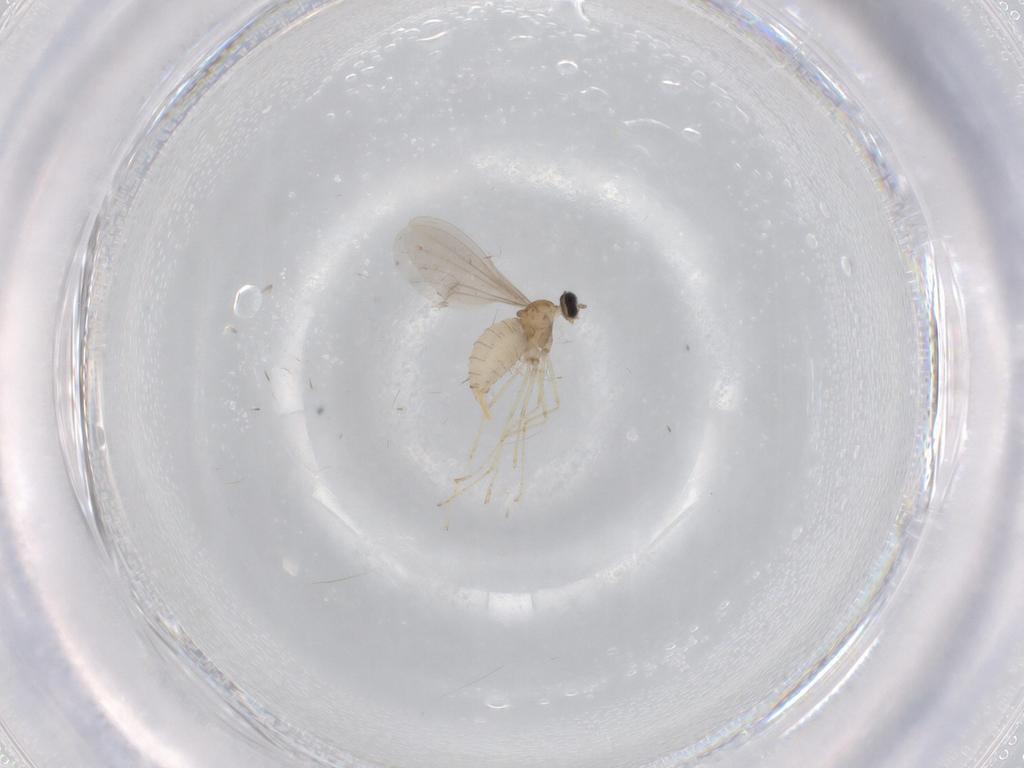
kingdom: Animalia
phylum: Arthropoda
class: Insecta
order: Diptera
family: Cecidomyiidae
